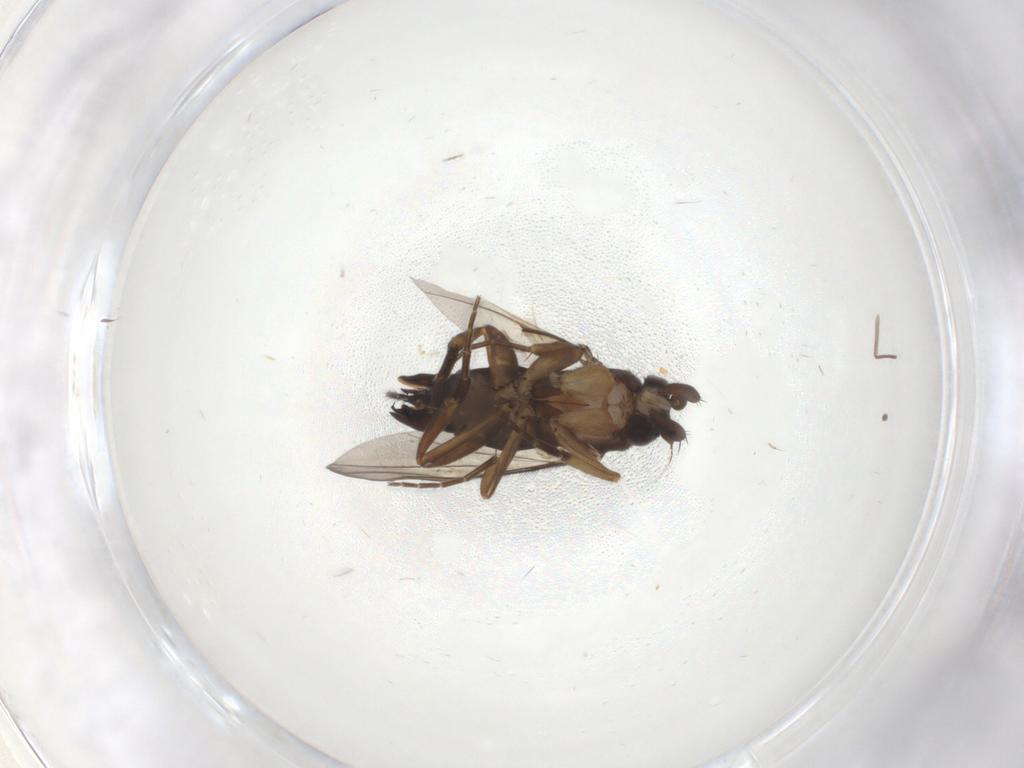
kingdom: Animalia
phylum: Arthropoda
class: Insecta
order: Diptera
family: Phoridae
